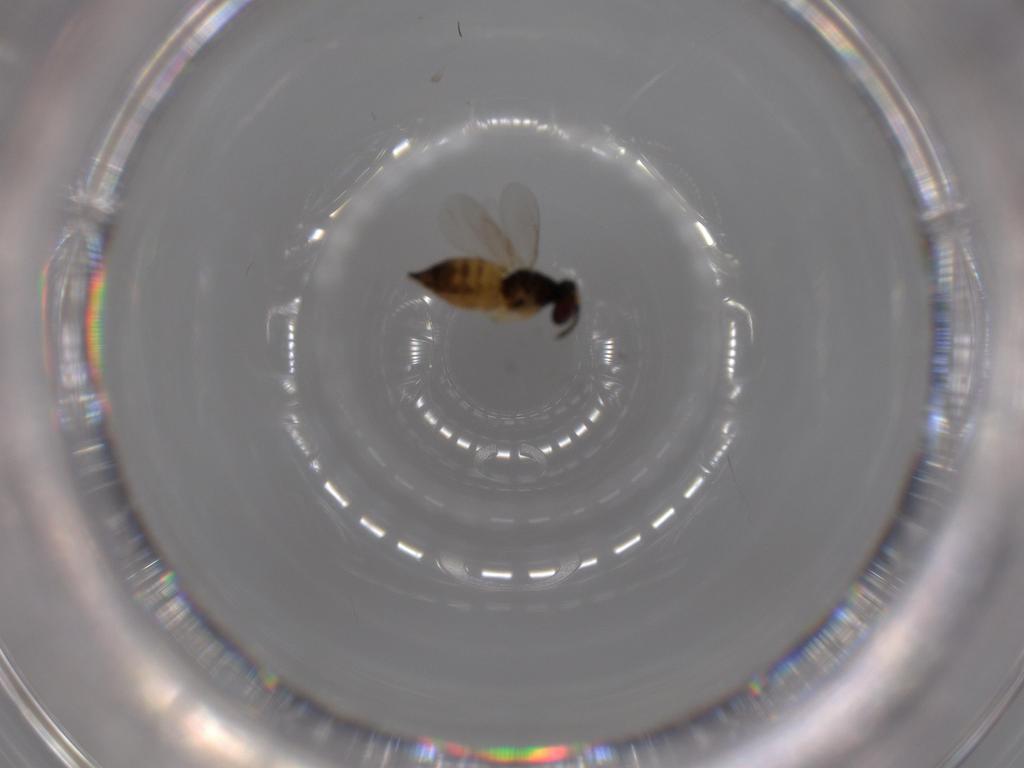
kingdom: Animalia
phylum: Arthropoda
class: Insecta
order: Hymenoptera
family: Eulophidae
